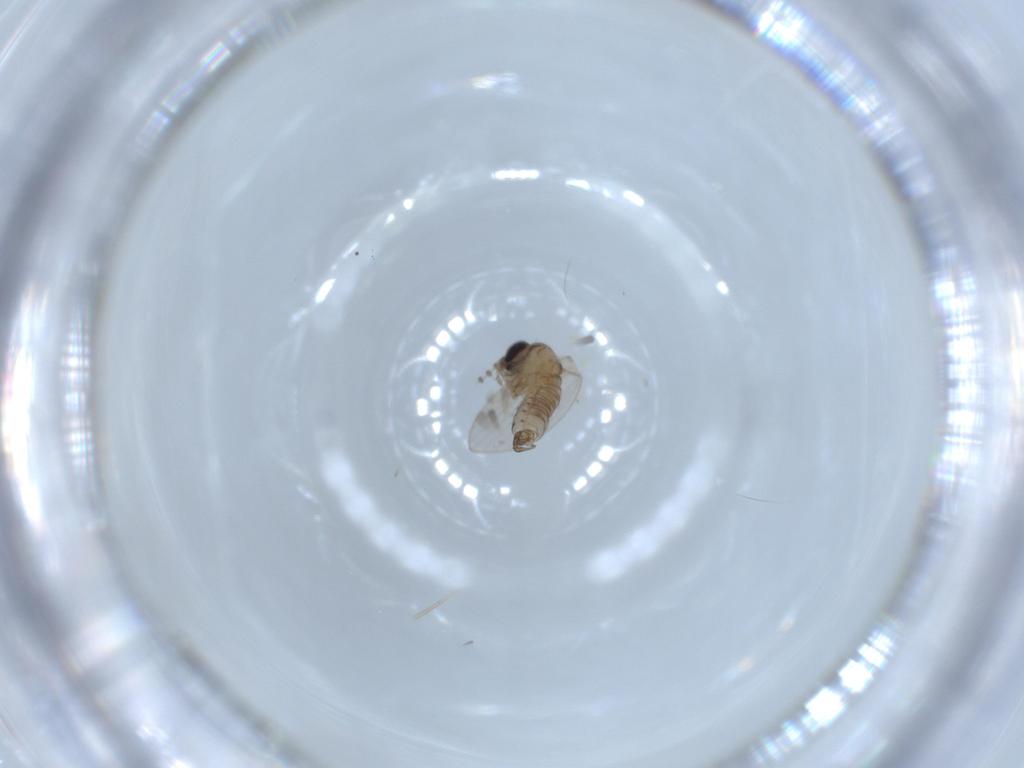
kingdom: Animalia
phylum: Arthropoda
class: Insecta
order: Diptera
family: Psychodidae
